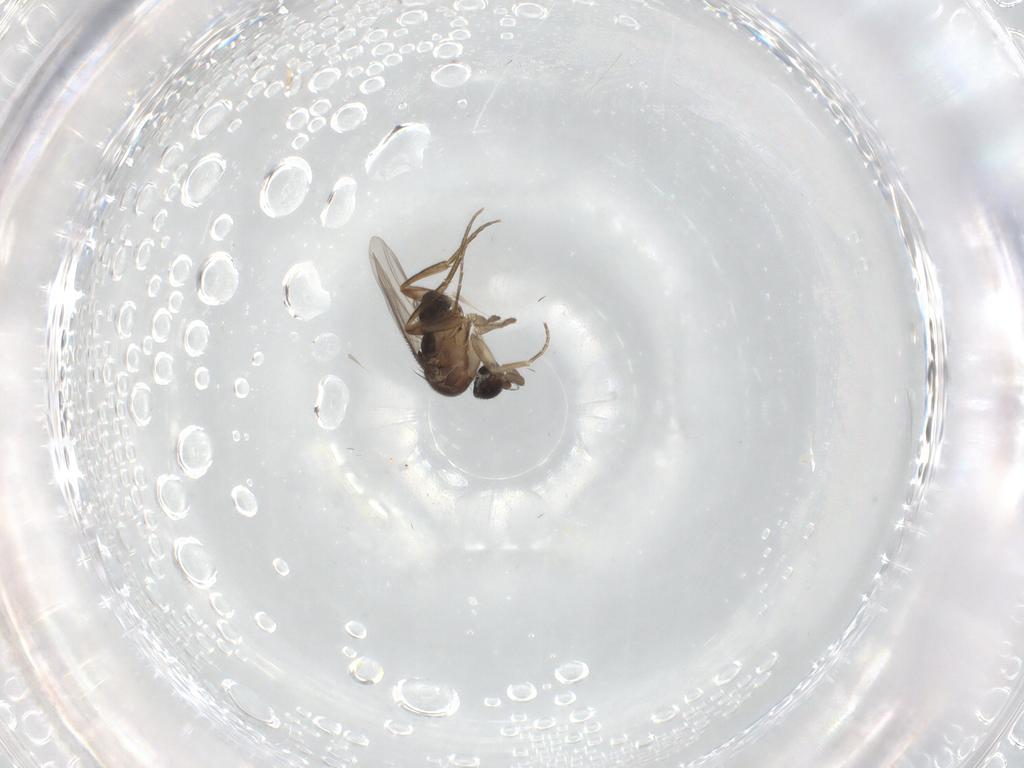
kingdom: Animalia
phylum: Arthropoda
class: Insecta
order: Diptera
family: Phoridae
